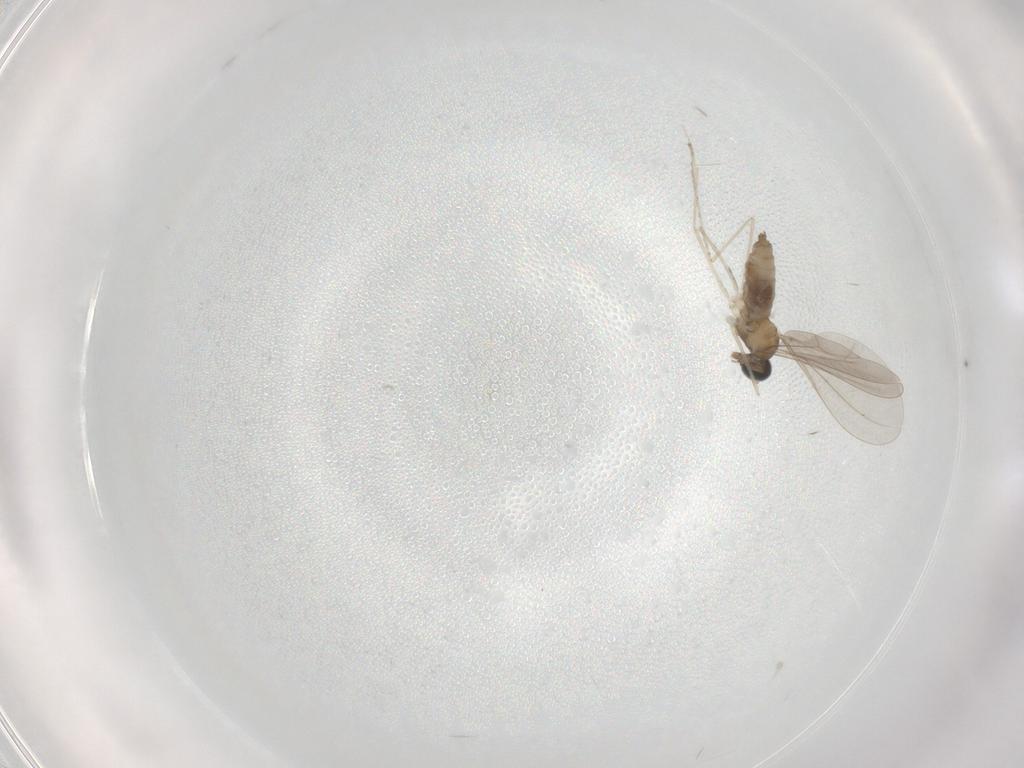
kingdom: Animalia
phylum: Arthropoda
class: Insecta
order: Diptera
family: Cecidomyiidae
